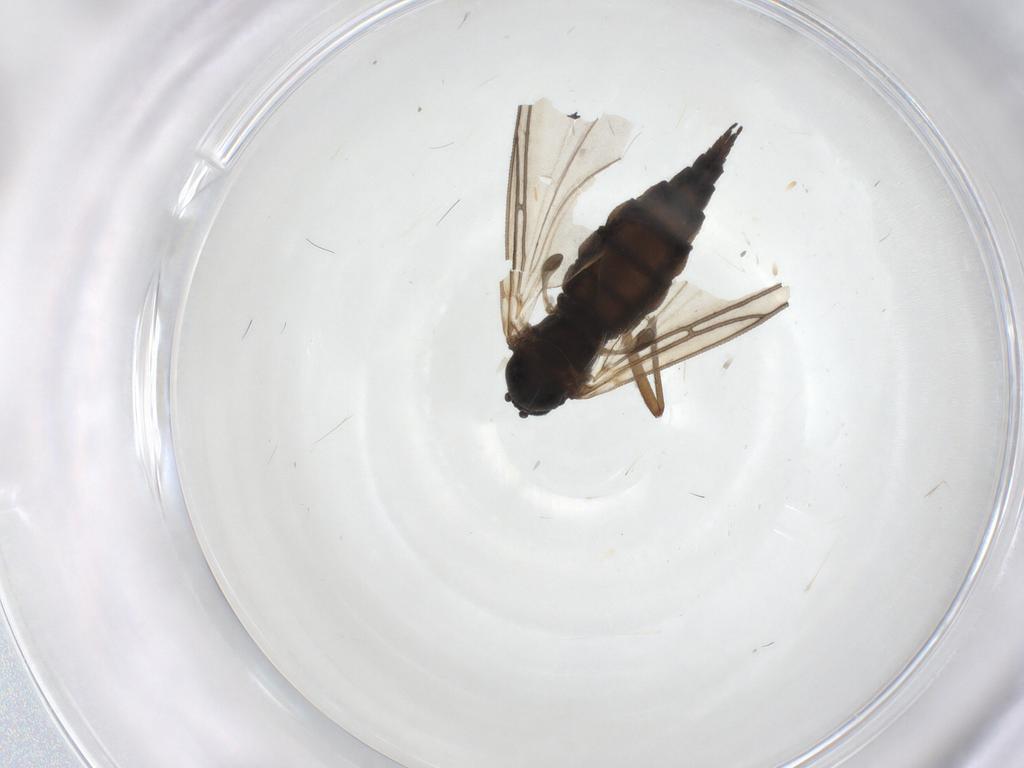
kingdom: Animalia
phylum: Arthropoda
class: Insecta
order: Diptera
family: Sciaridae
